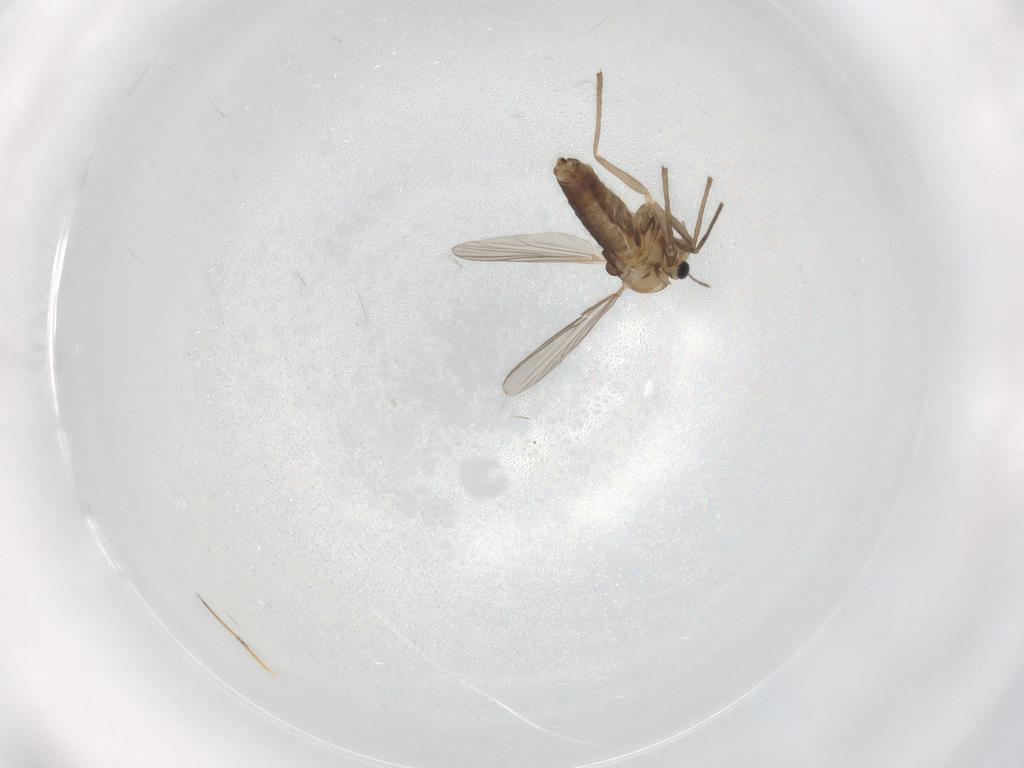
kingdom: Animalia
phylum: Arthropoda
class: Insecta
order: Diptera
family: Chironomidae
